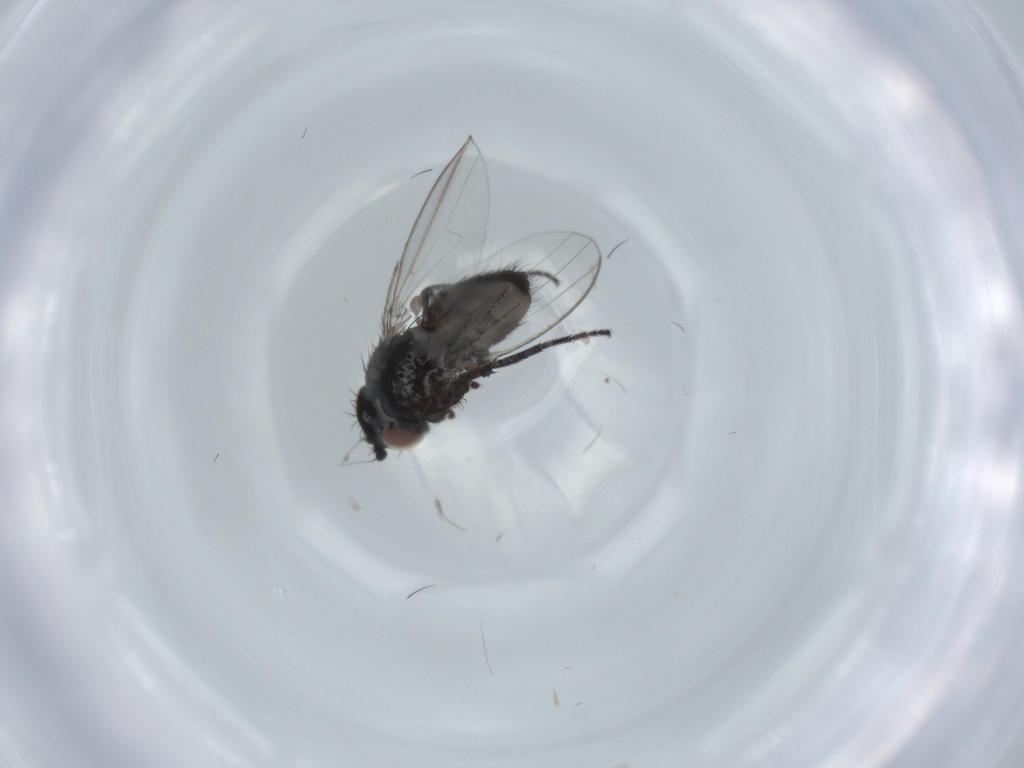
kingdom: Animalia
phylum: Arthropoda
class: Insecta
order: Diptera
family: Milichiidae
